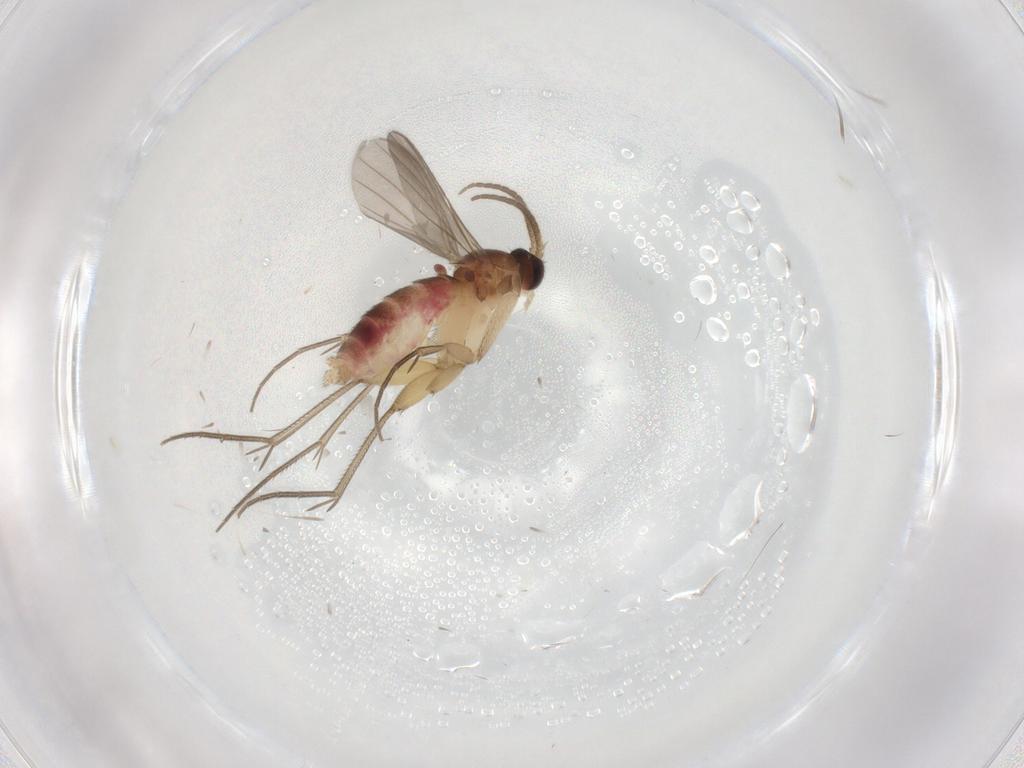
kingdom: Animalia
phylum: Arthropoda
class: Insecta
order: Diptera
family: Mycetophilidae
